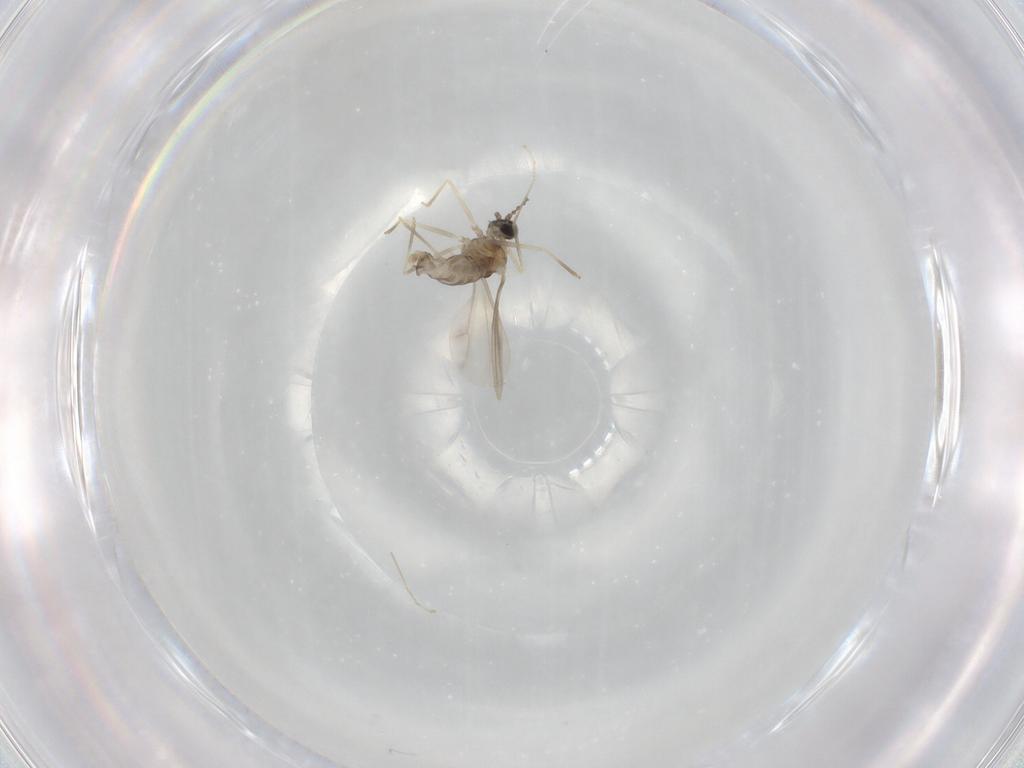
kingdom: Animalia
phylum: Arthropoda
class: Insecta
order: Diptera
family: Cecidomyiidae
